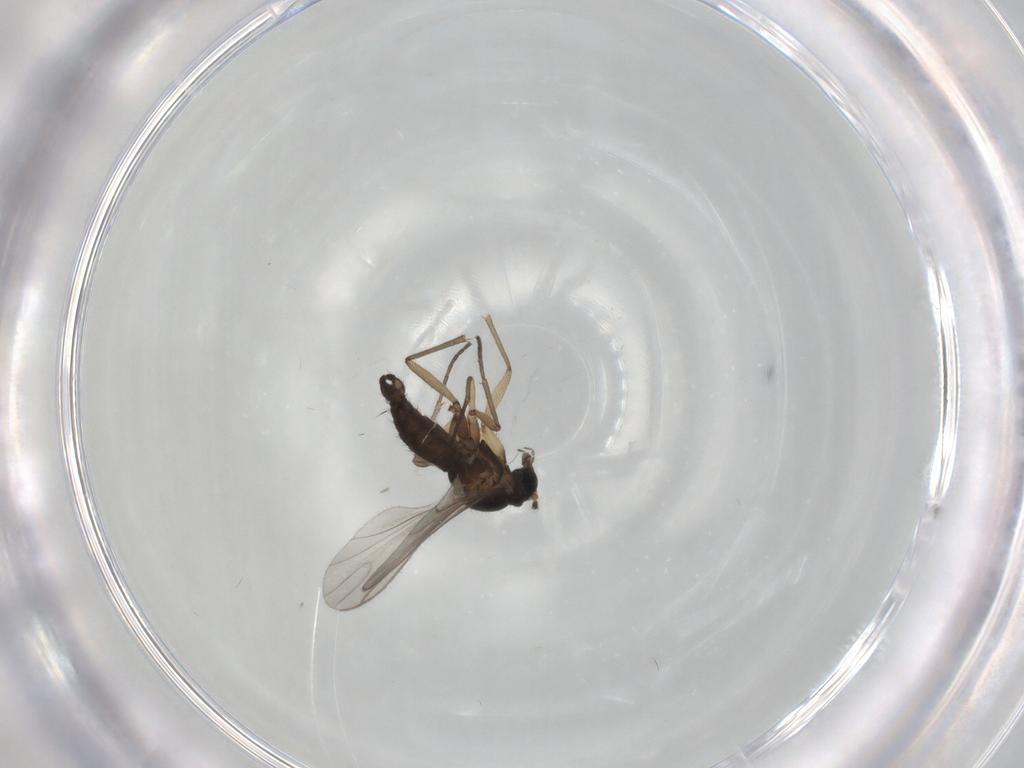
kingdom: Animalia
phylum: Arthropoda
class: Insecta
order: Diptera
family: Sciaridae
